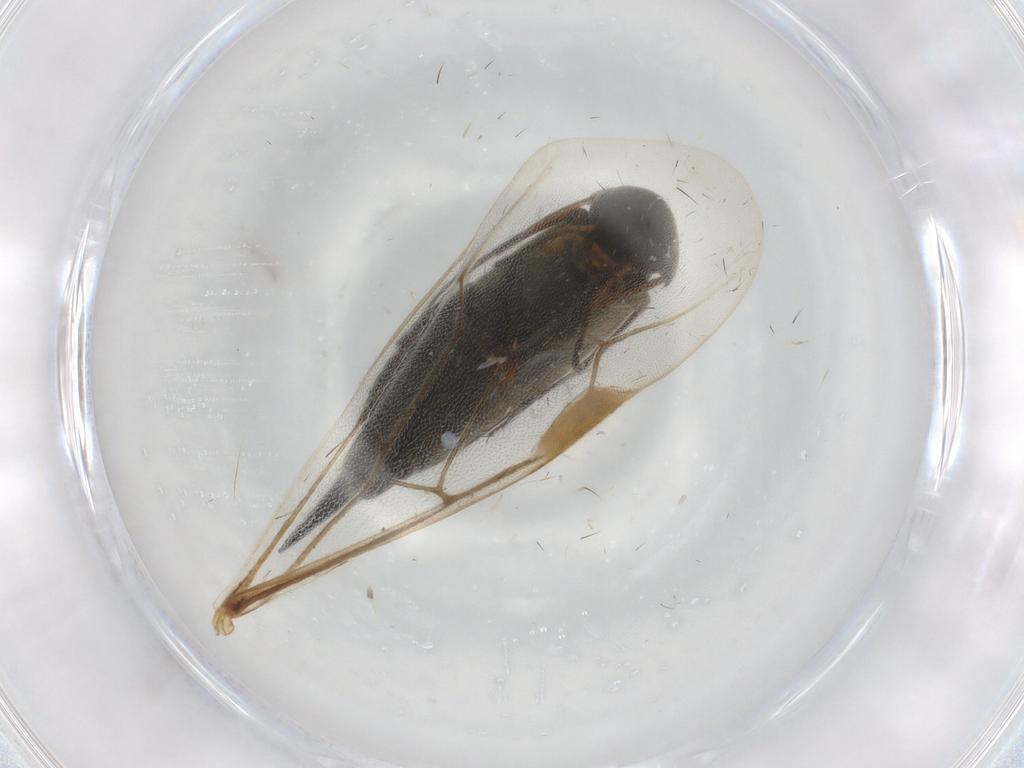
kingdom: Animalia
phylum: Arthropoda
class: Insecta
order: Coleoptera
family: Mordellidae
